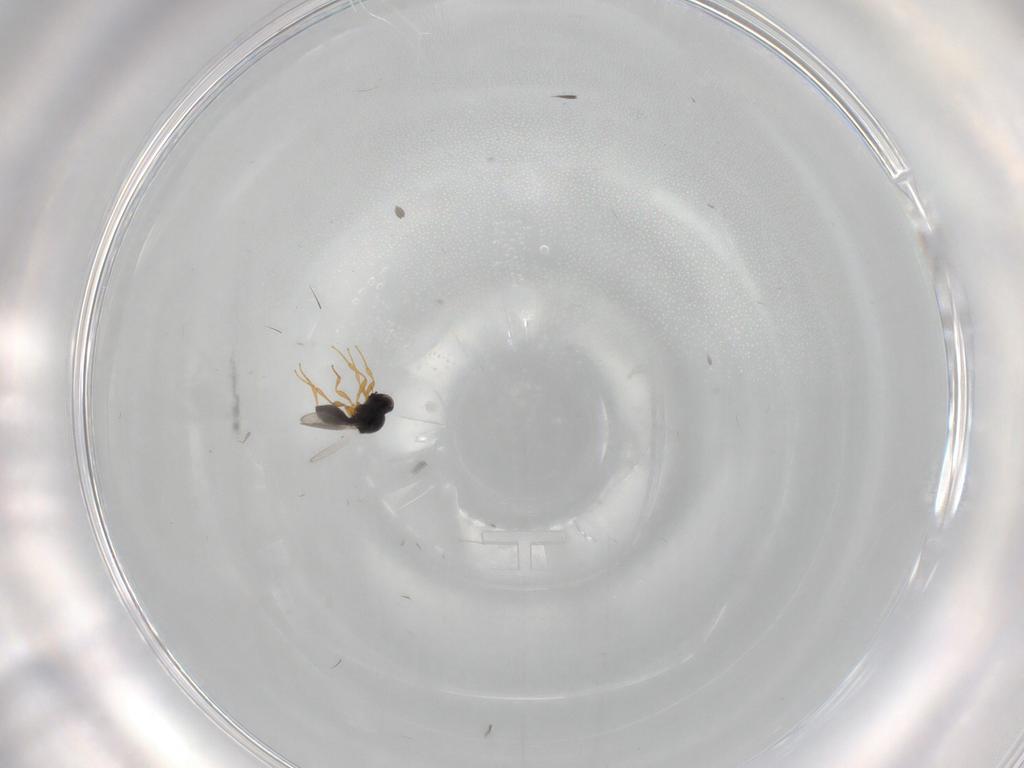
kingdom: Animalia
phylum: Arthropoda
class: Insecta
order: Hymenoptera
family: Platygastridae
